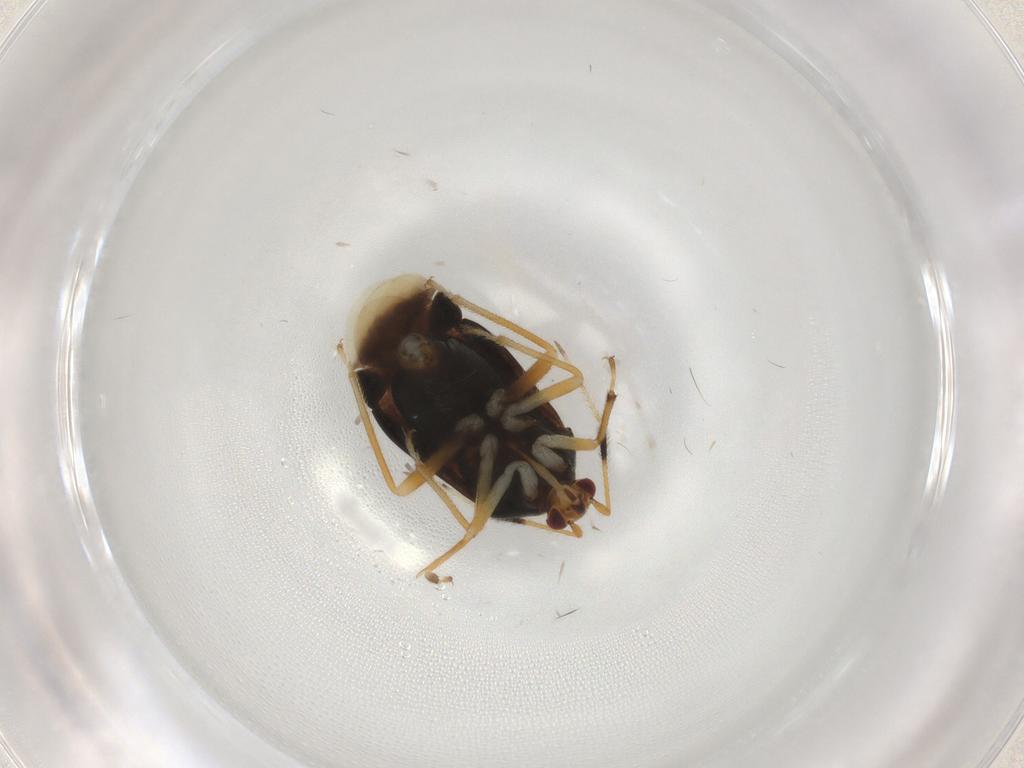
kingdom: Animalia
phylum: Arthropoda
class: Insecta
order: Hemiptera
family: Miridae
